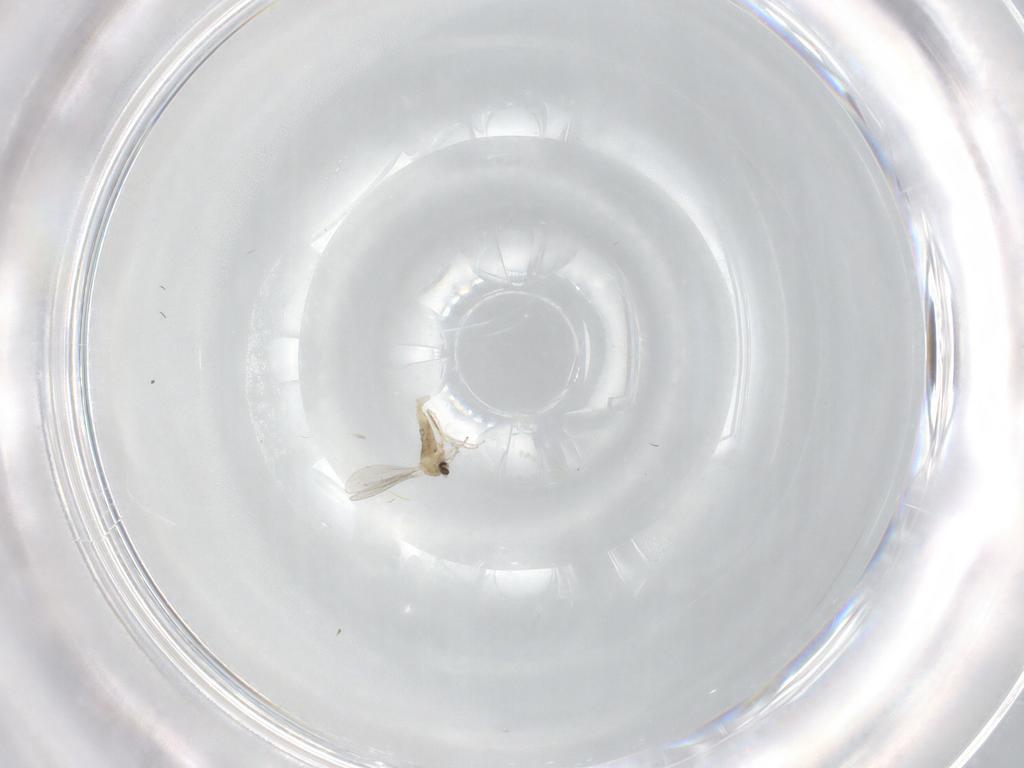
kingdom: Animalia
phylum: Arthropoda
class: Insecta
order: Diptera
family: Cecidomyiidae
